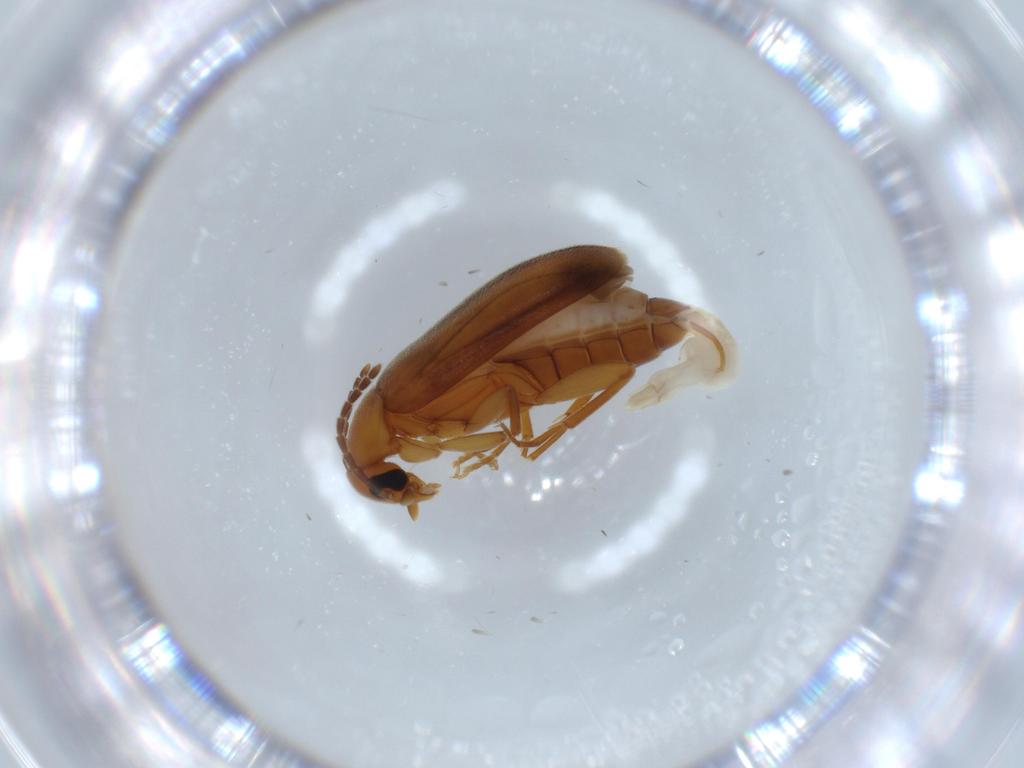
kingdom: Animalia
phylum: Arthropoda
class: Insecta
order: Coleoptera
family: Scraptiidae
